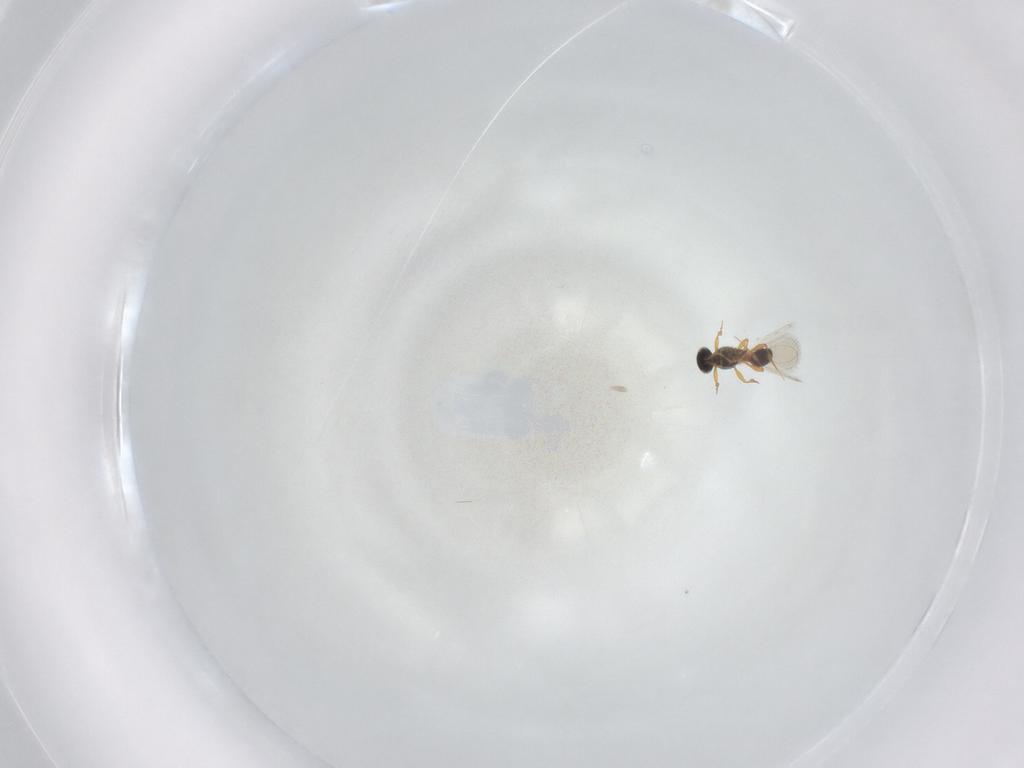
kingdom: Animalia
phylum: Arthropoda
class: Insecta
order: Hymenoptera
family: Platygastridae
